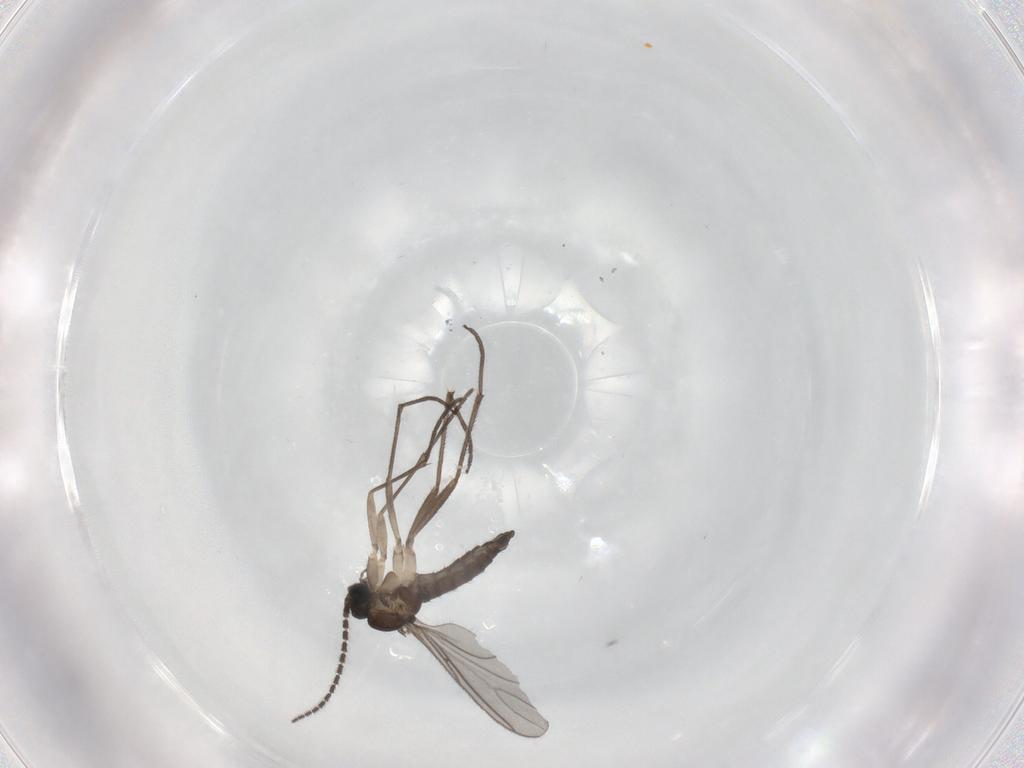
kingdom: Animalia
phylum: Arthropoda
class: Insecta
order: Diptera
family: Sciaridae
